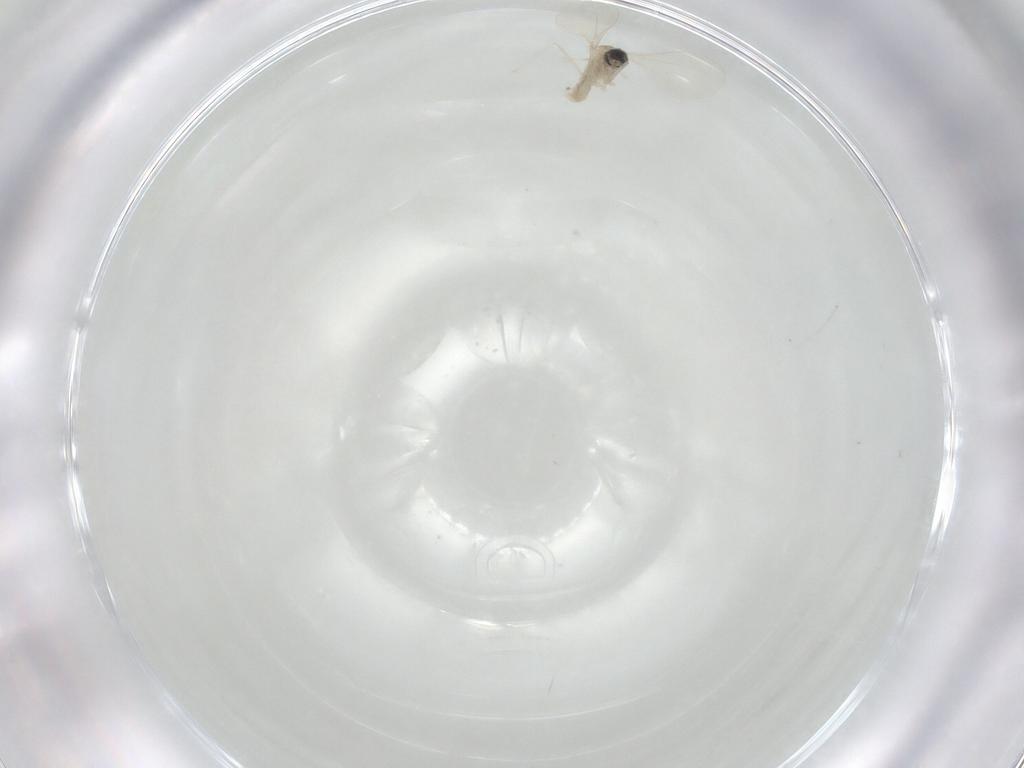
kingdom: Animalia
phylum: Arthropoda
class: Insecta
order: Diptera
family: Cecidomyiidae
